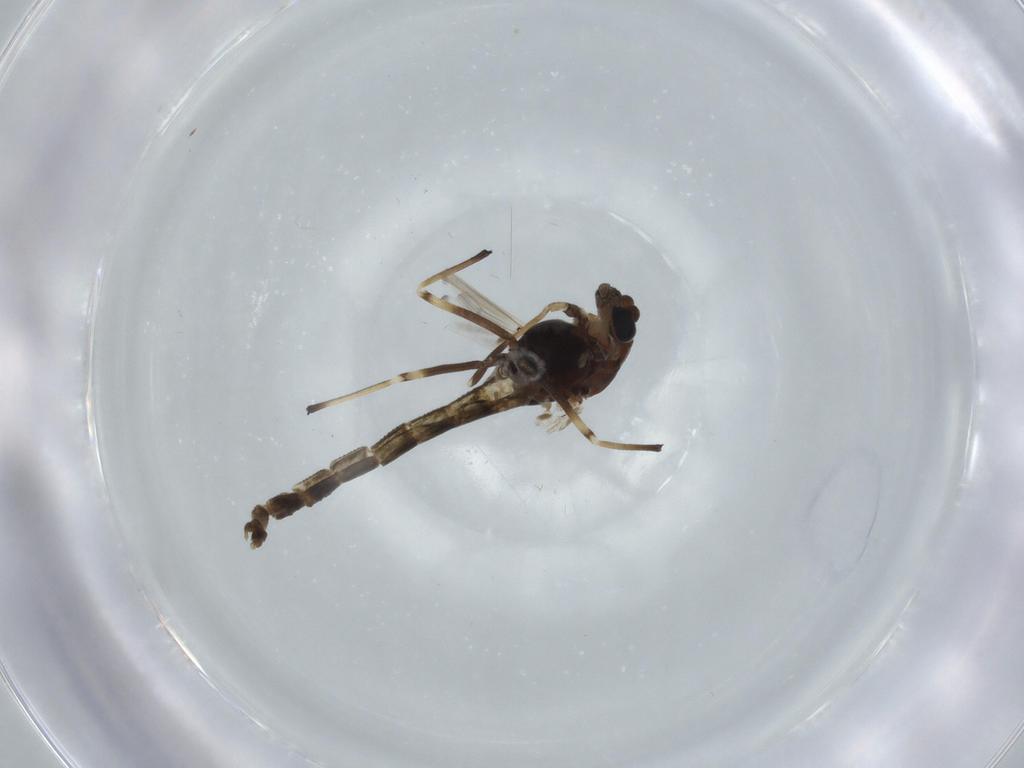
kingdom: Animalia
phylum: Arthropoda
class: Insecta
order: Diptera
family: Chironomidae
